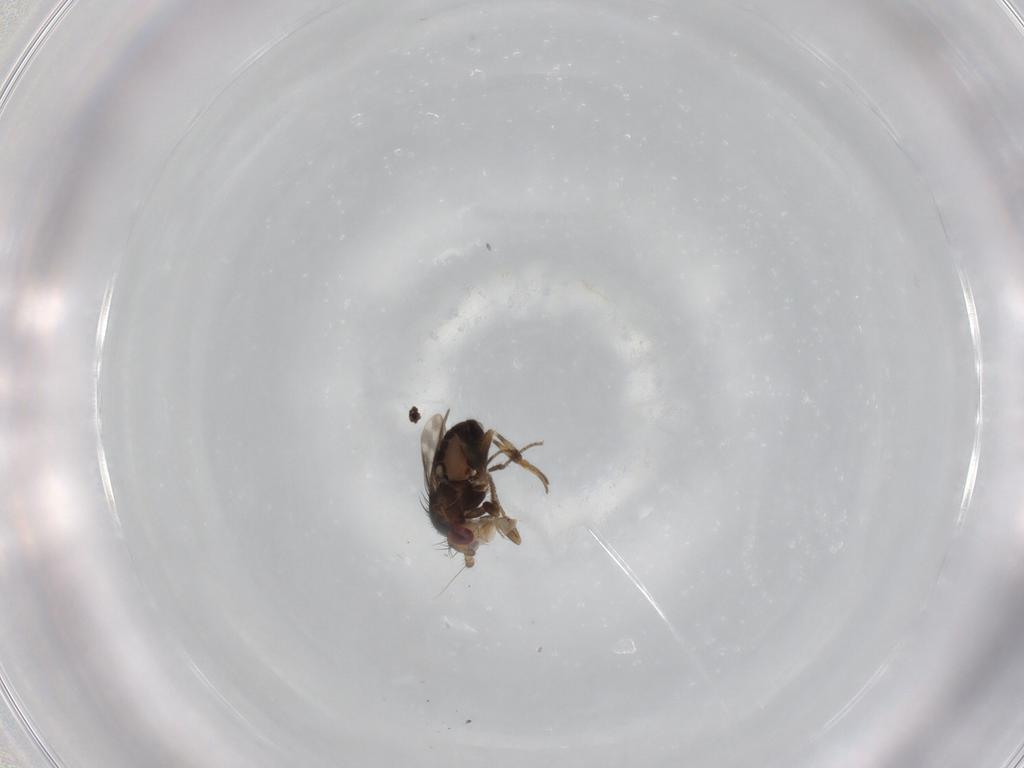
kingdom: Animalia
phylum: Arthropoda
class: Insecta
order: Diptera
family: Sphaeroceridae
